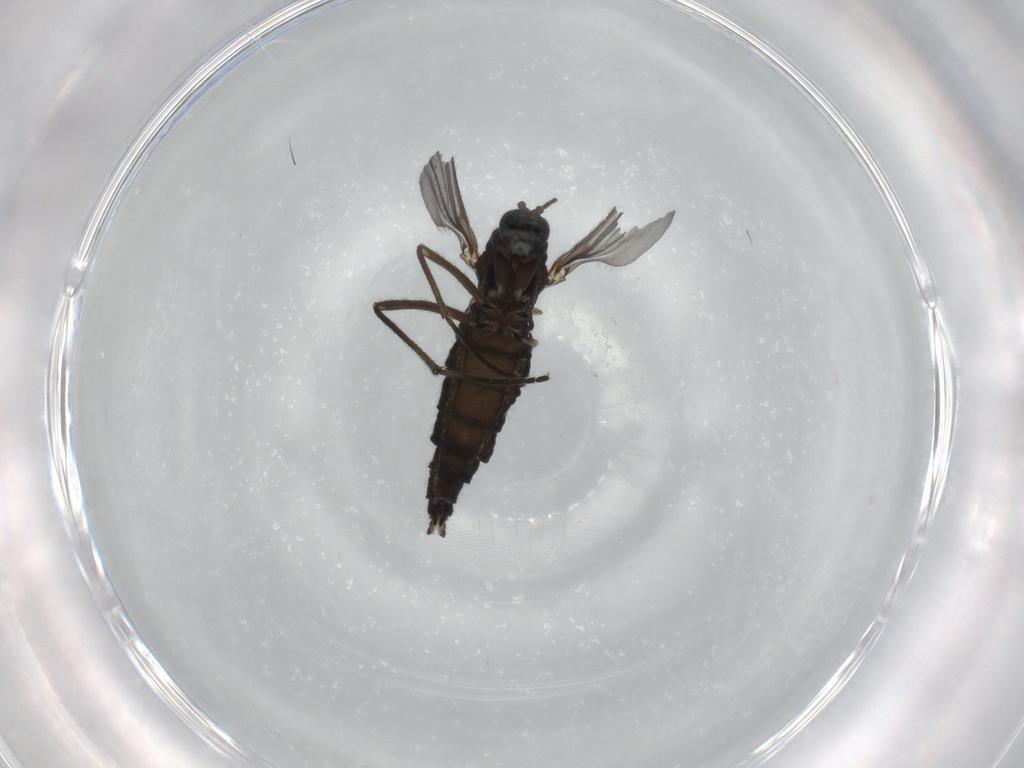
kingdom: Animalia
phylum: Arthropoda
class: Insecta
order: Diptera
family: Sciaridae
